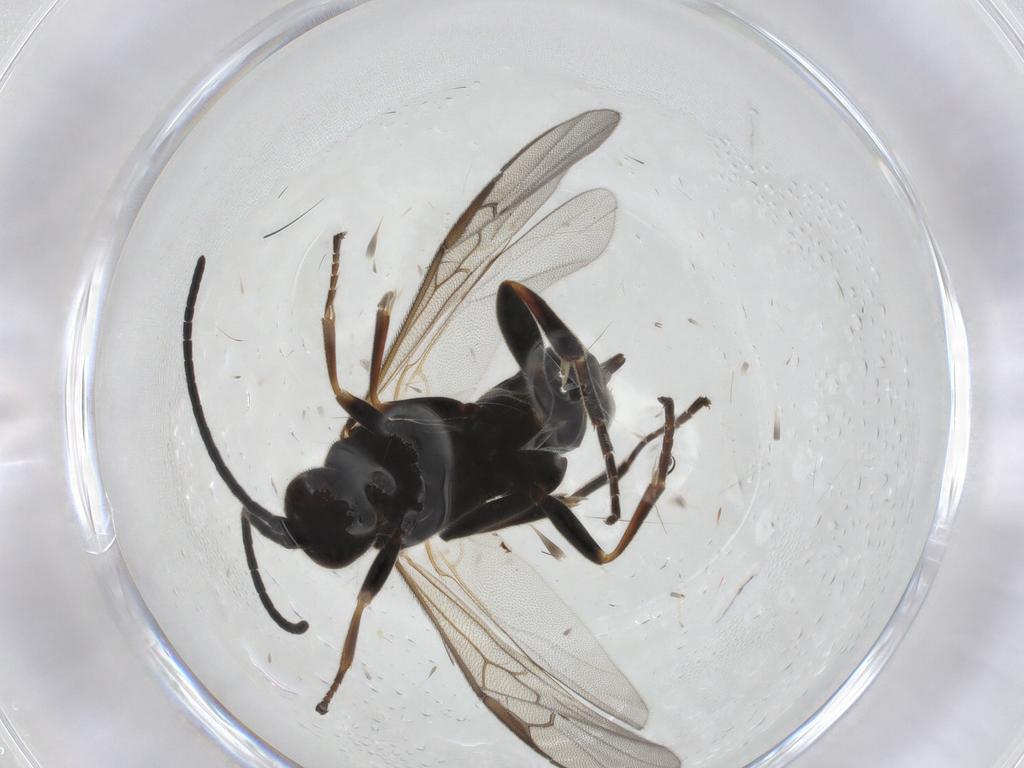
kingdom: Animalia
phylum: Arthropoda
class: Insecta
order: Hymenoptera
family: Braconidae
